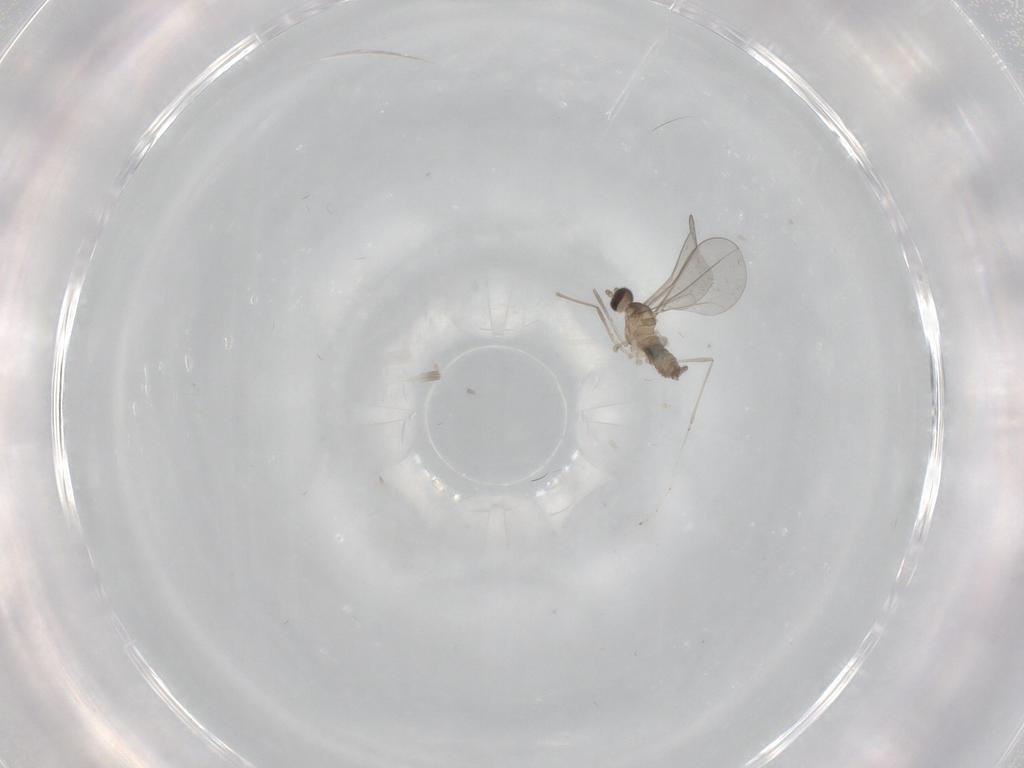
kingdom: Animalia
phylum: Arthropoda
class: Insecta
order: Diptera
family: Cecidomyiidae
